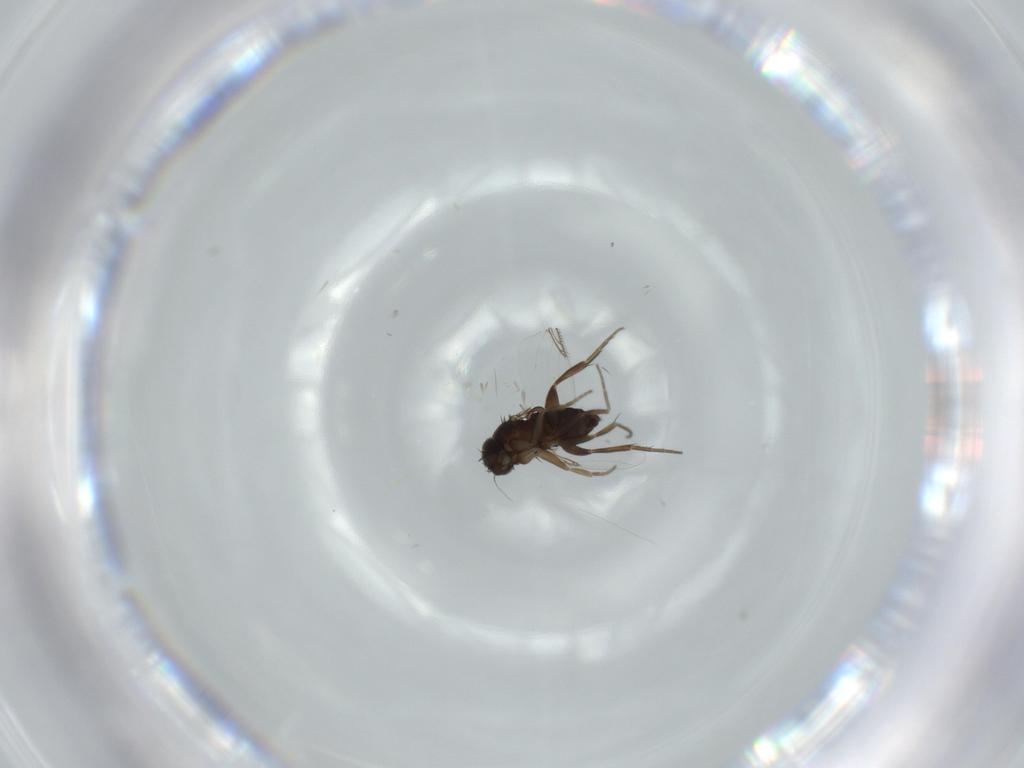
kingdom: Animalia
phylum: Arthropoda
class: Insecta
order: Diptera
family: Phoridae
